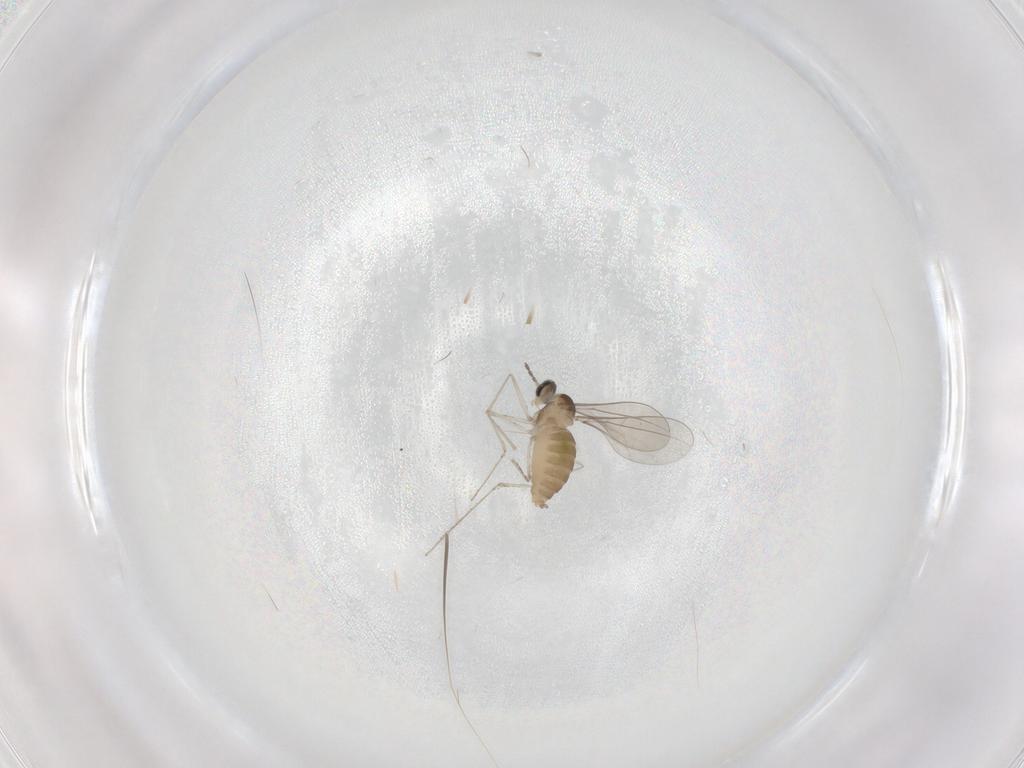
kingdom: Animalia
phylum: Arthropoda
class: Insecta
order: Diptera
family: Cecidomyiidae
